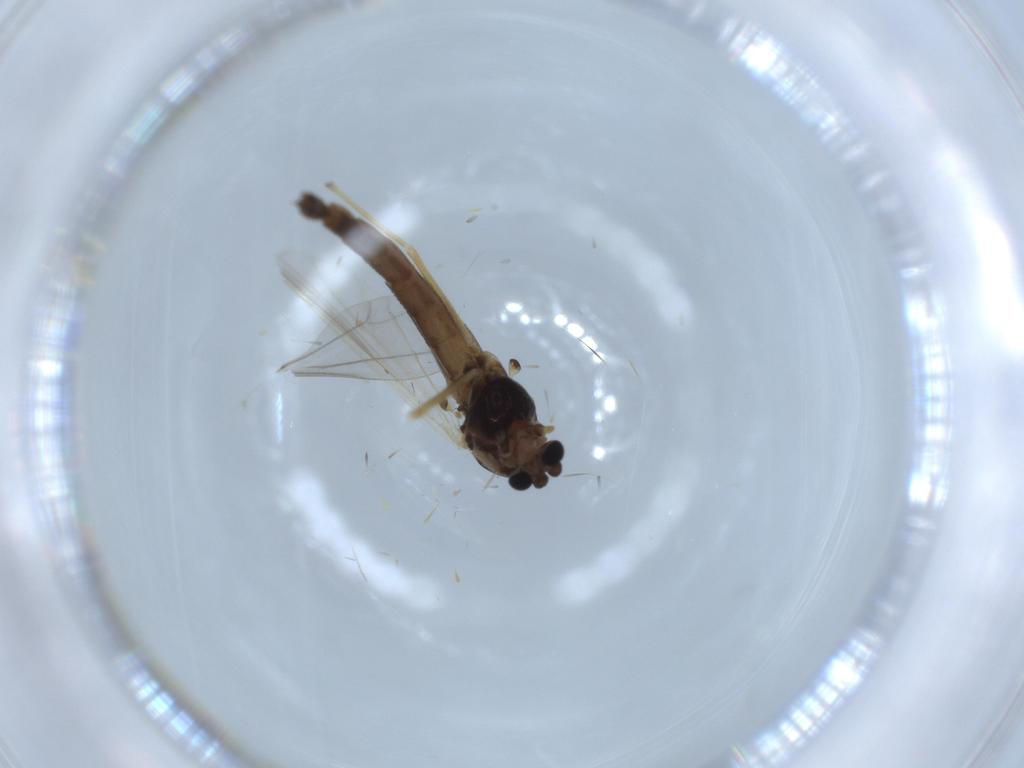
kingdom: Animalia
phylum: Arthropoda
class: Insecta
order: Diptera
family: Chironomidae
